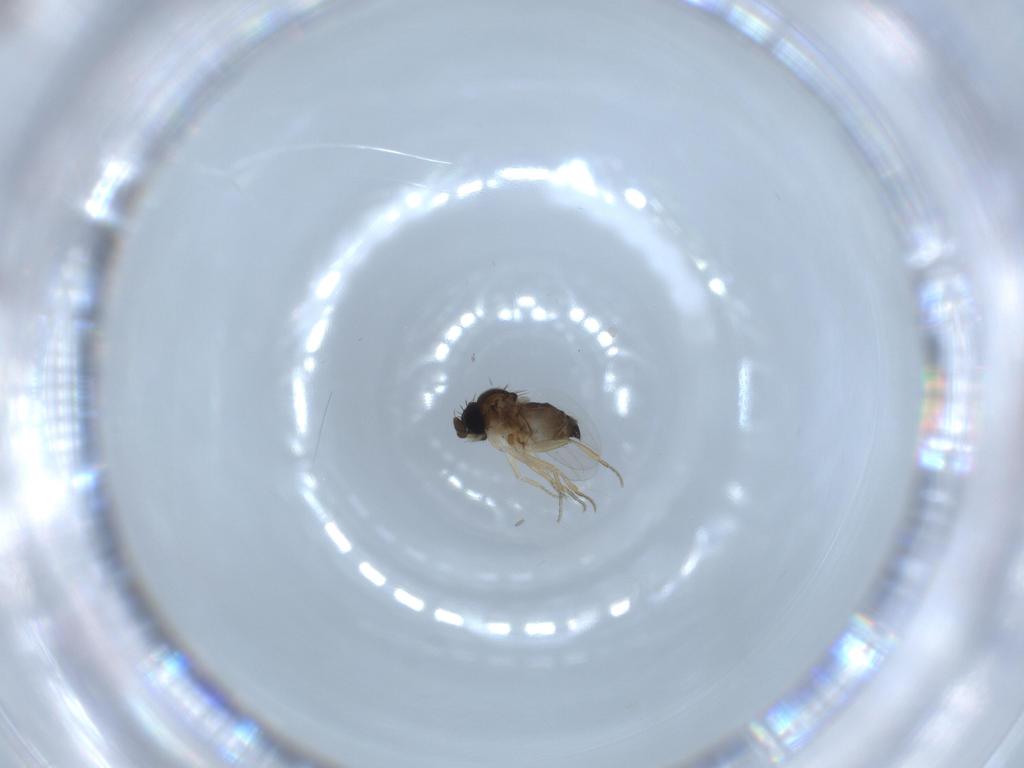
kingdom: Animalia
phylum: Arthropoda
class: Insecta
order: Diptera
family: Phoridae
